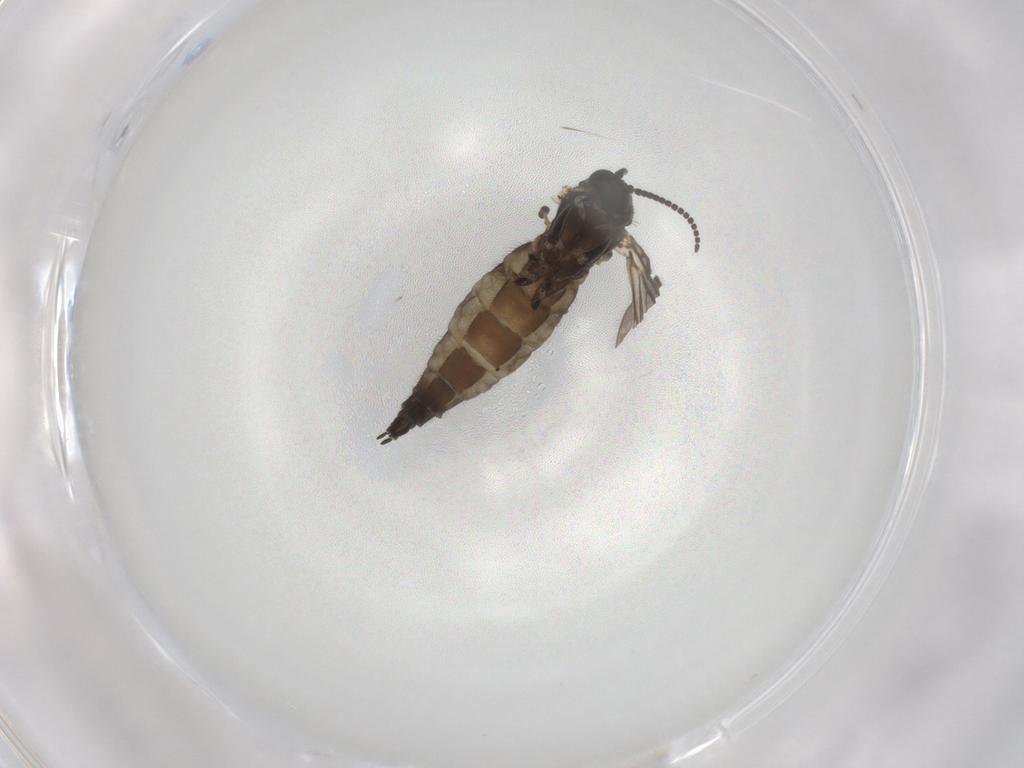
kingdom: Animalia
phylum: Arthropoda
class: Insecta
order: Diptera
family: Sciaridae
